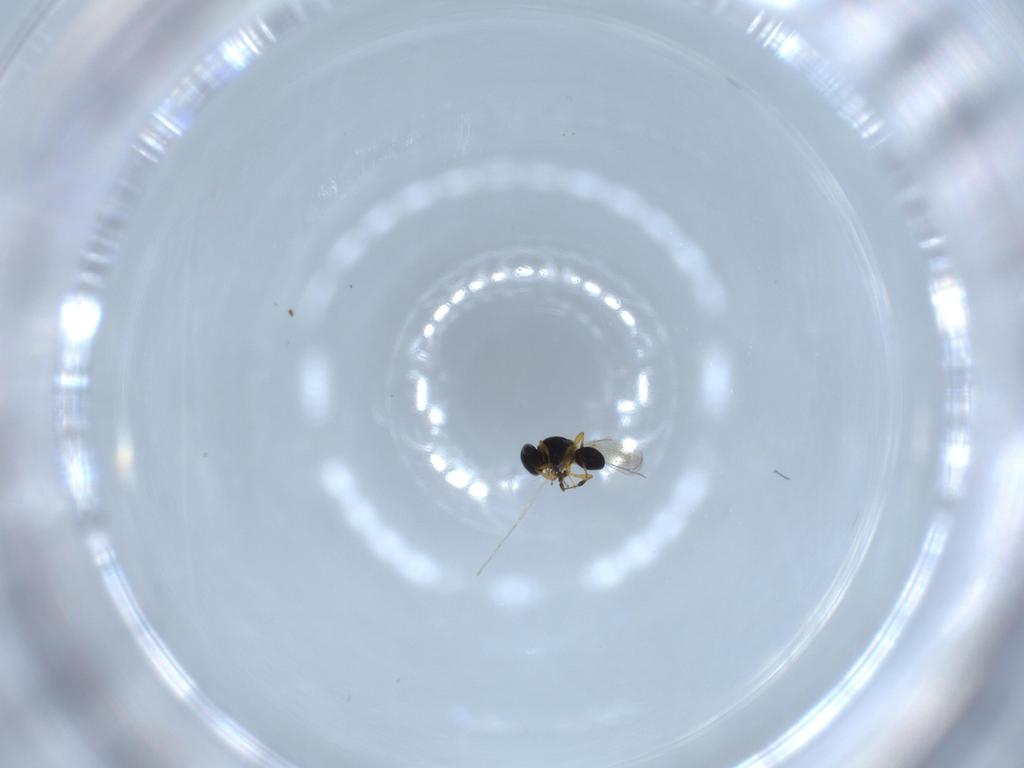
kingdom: Animalia
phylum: Arthropoda
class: Insecta
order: Hymenoptera
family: Platygastridae
